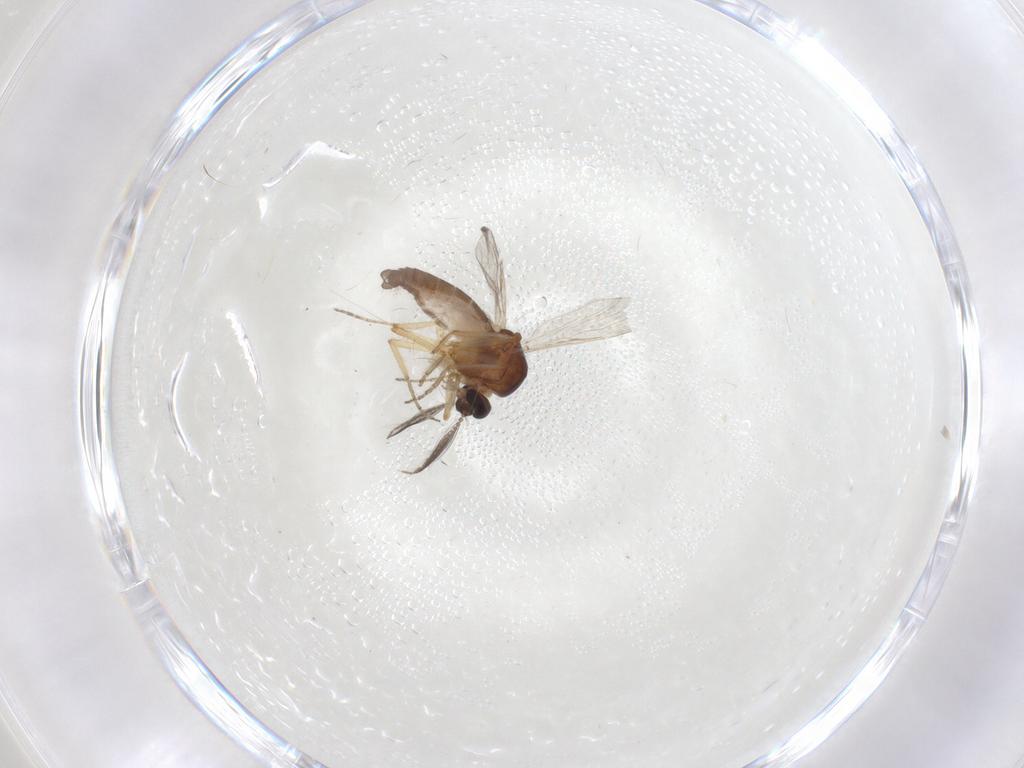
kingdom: Animalia
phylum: Arthropoda
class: Insecta
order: Diptera
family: Ceratopogonidae
